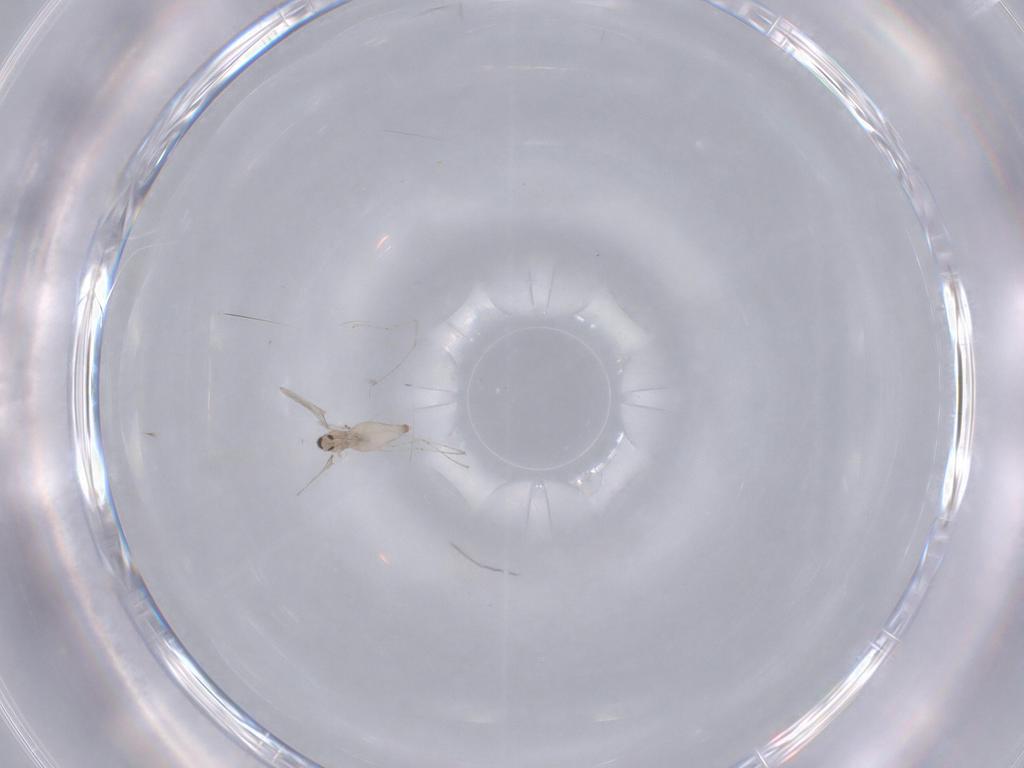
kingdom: Animalia
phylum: Arthropoda
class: Insecta
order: Diptera
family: Cecidomyiidae
